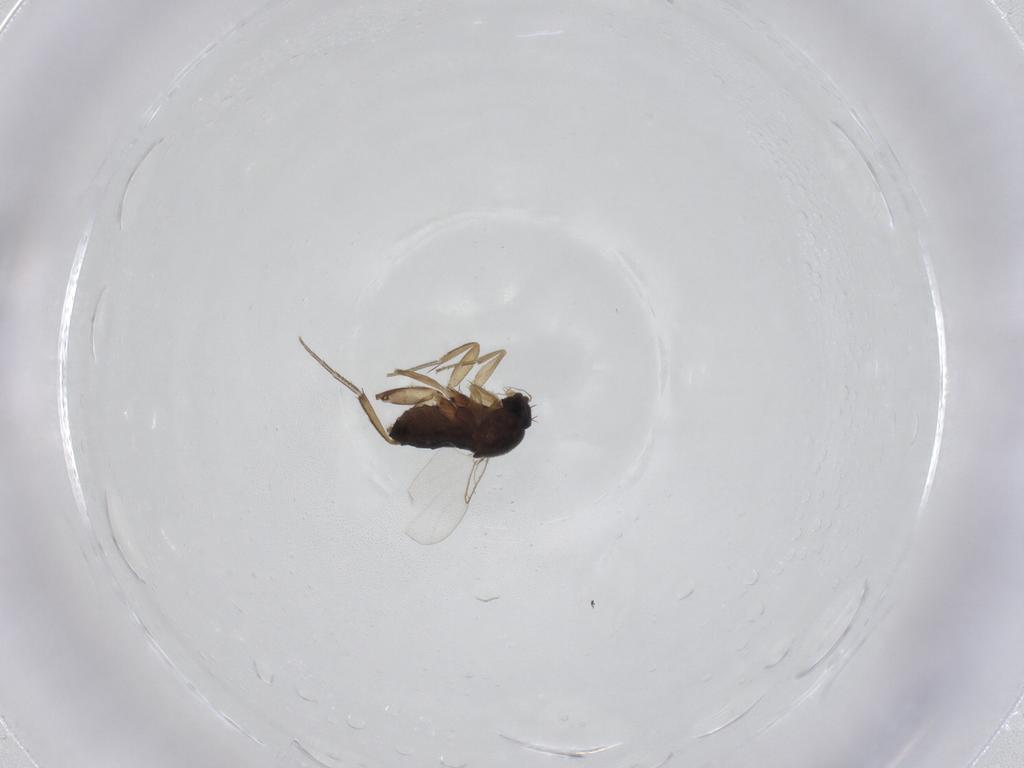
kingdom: Animalia
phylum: Arthropoda
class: Insecta
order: Diptera
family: Phoridae
